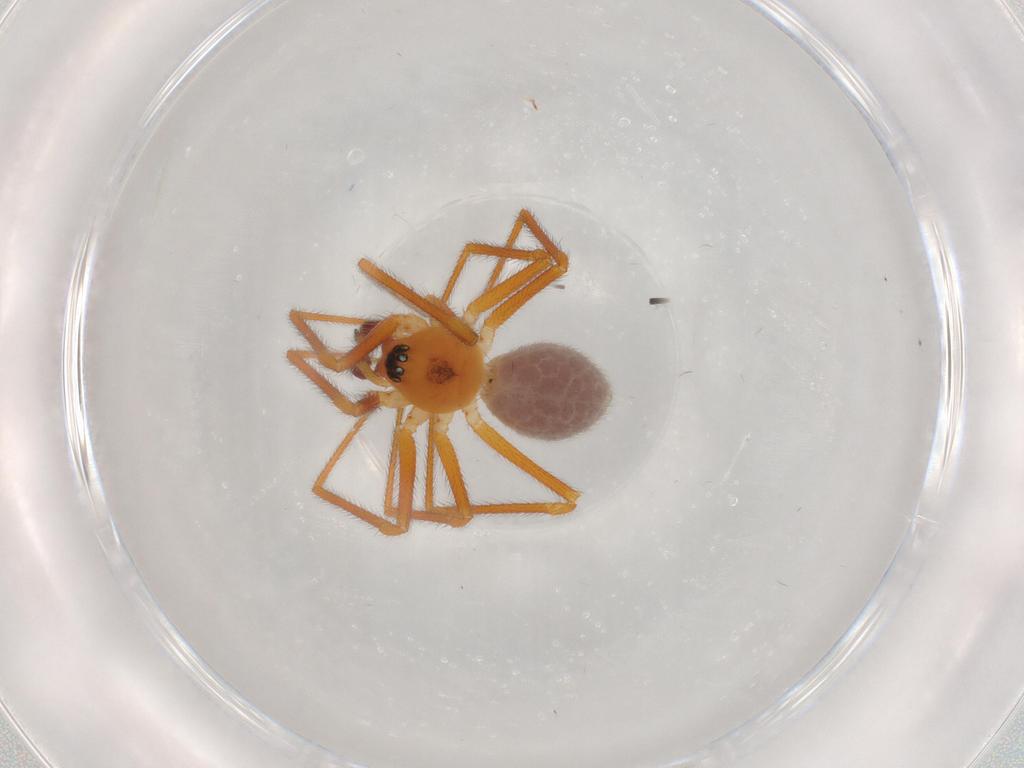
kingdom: Animalia
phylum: Arthropoda
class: Arachnida
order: Araneae
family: Linyphiidae
